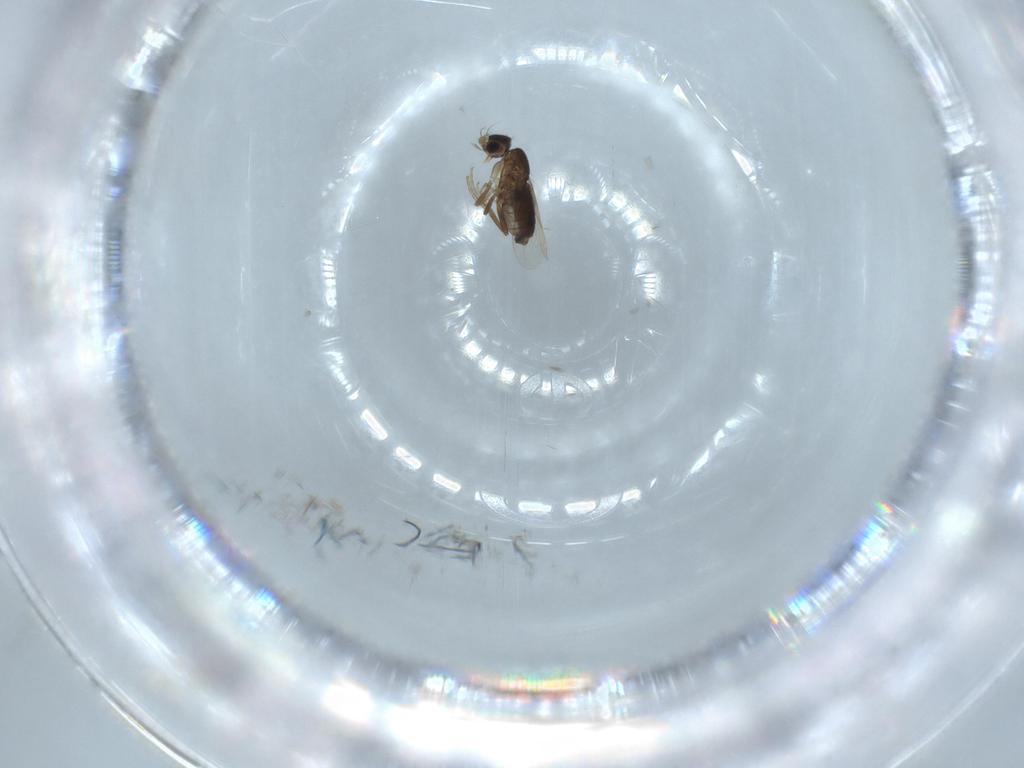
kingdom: Animalia
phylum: Arthropoda
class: Insecta
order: Diptera
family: Phoridae
